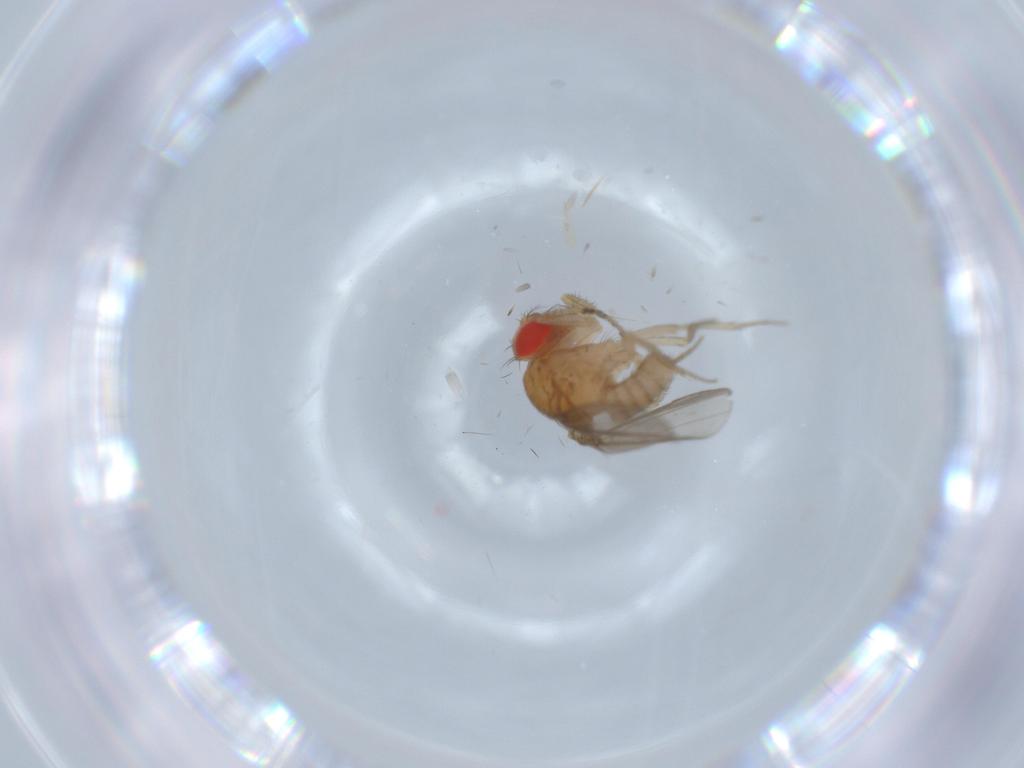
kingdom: Animalia
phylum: Arthropoda
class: Insecta
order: Diptera
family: Drosophilidae
